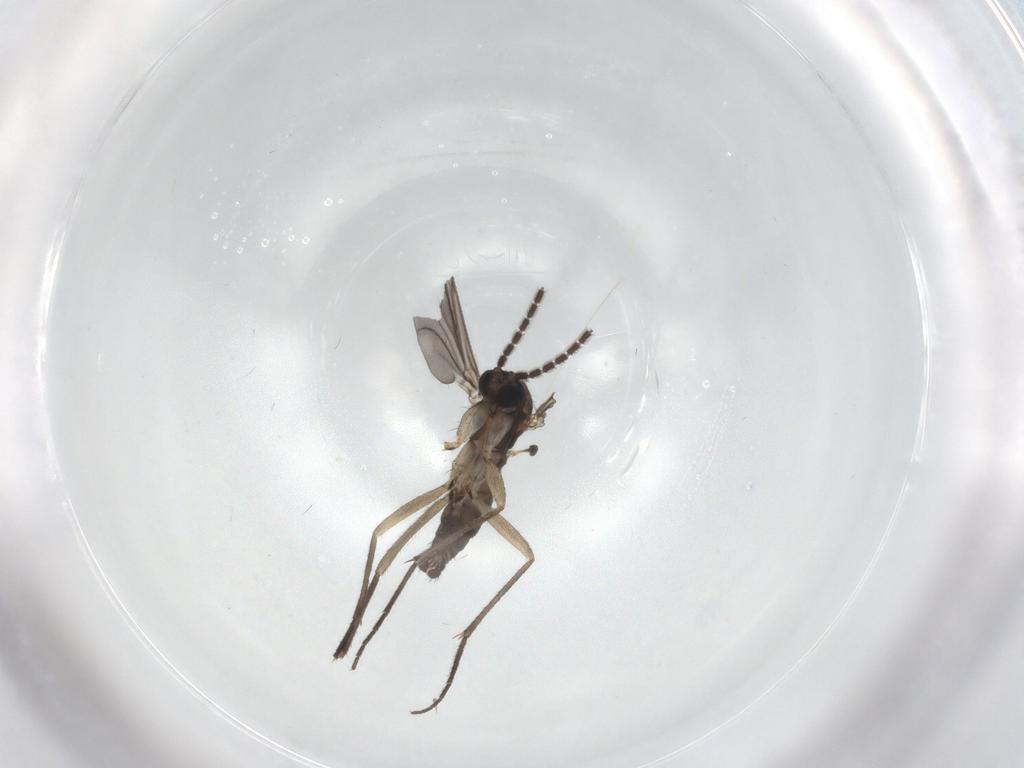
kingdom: Animalia
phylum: Arthropoda
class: Insecta
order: Diptera
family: Sciaridae
